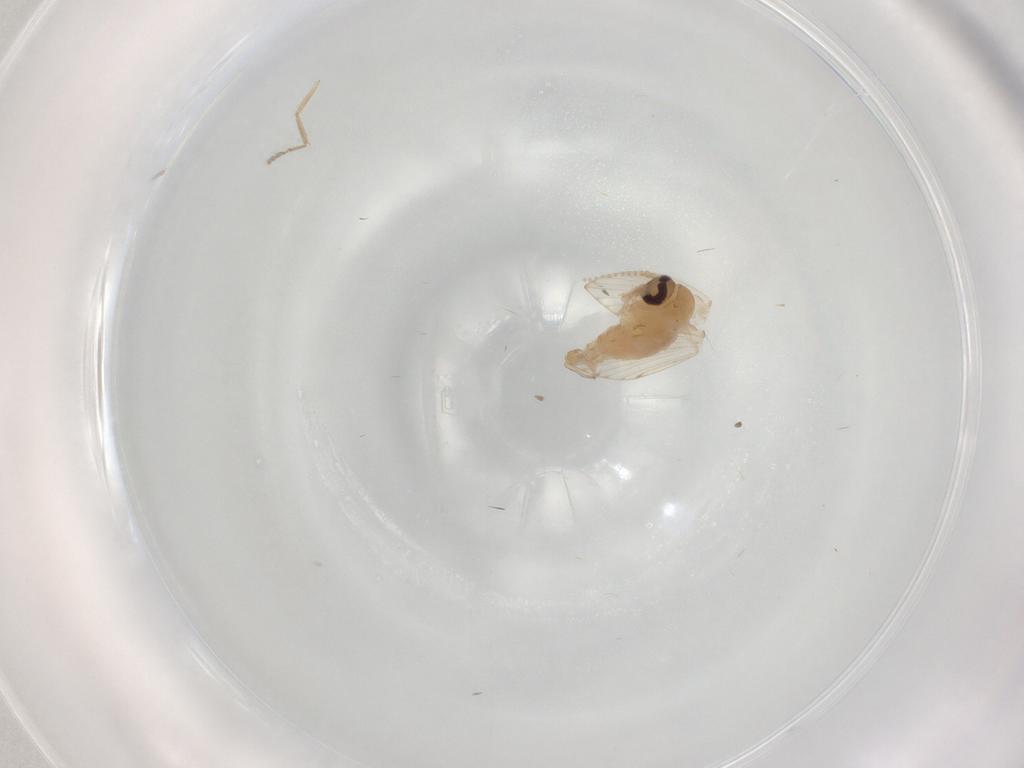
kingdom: Animalia
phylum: Arthropoda
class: Insecta
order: Diptera
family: Psychodidae
